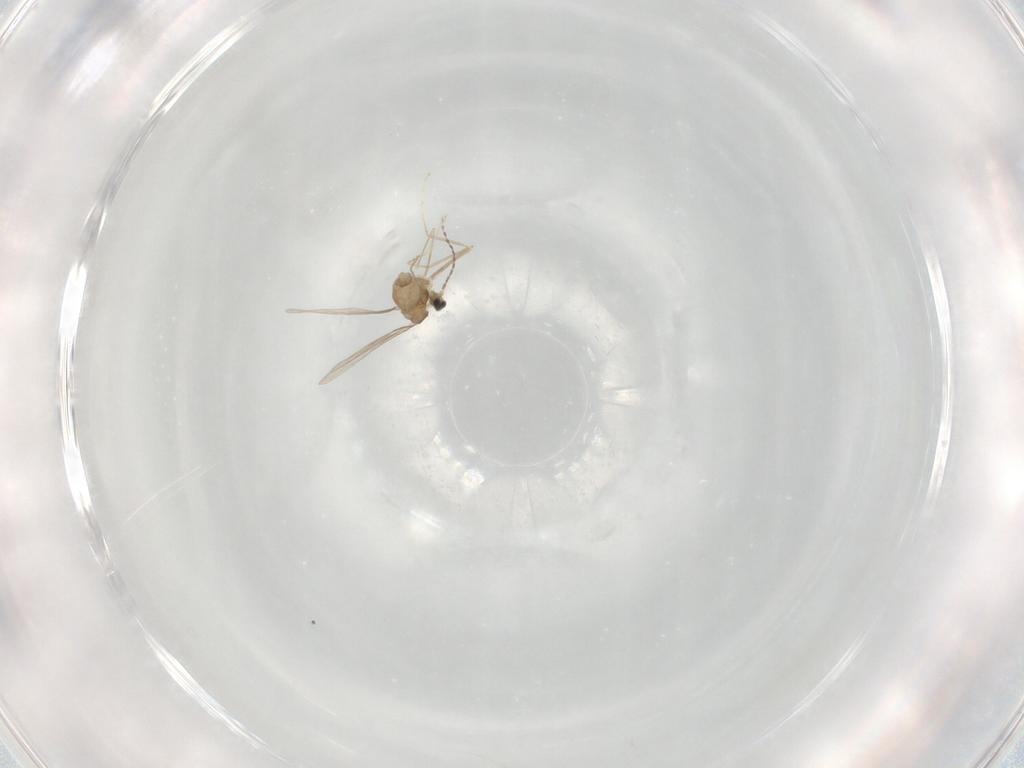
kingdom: Animalia
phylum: Arthropoda
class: Insecta
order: Diptera
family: Cecidomyiidae
